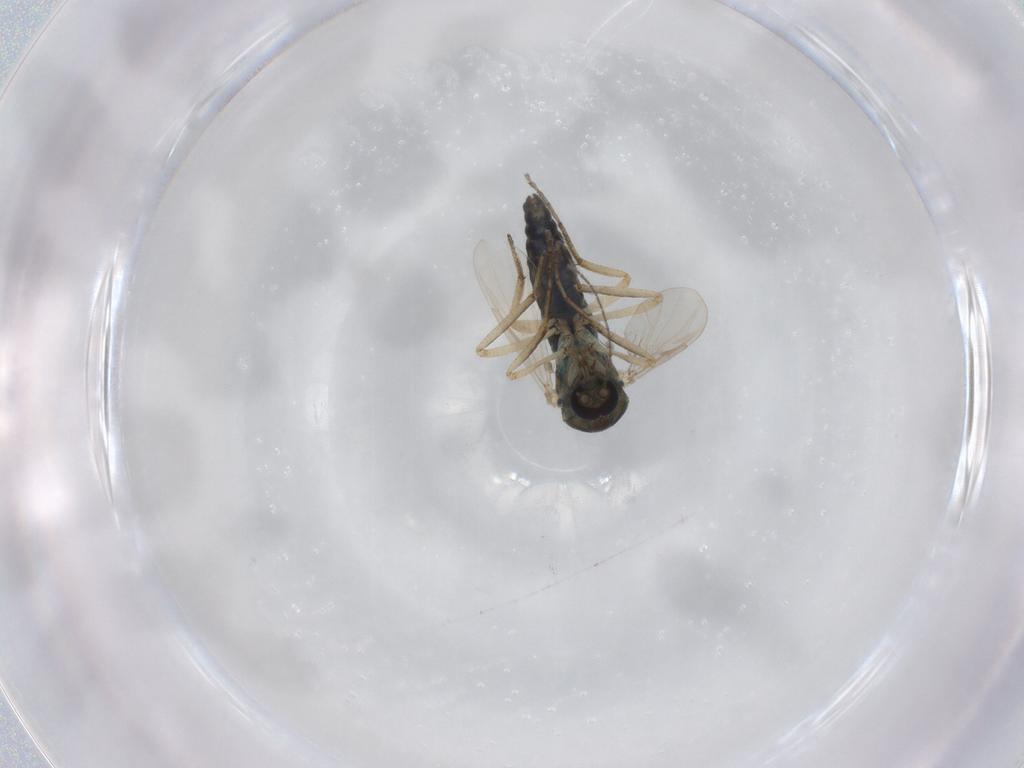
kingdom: Animalia
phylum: Arthropoda
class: Insecta
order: Diptera
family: Ceratopogonidae
